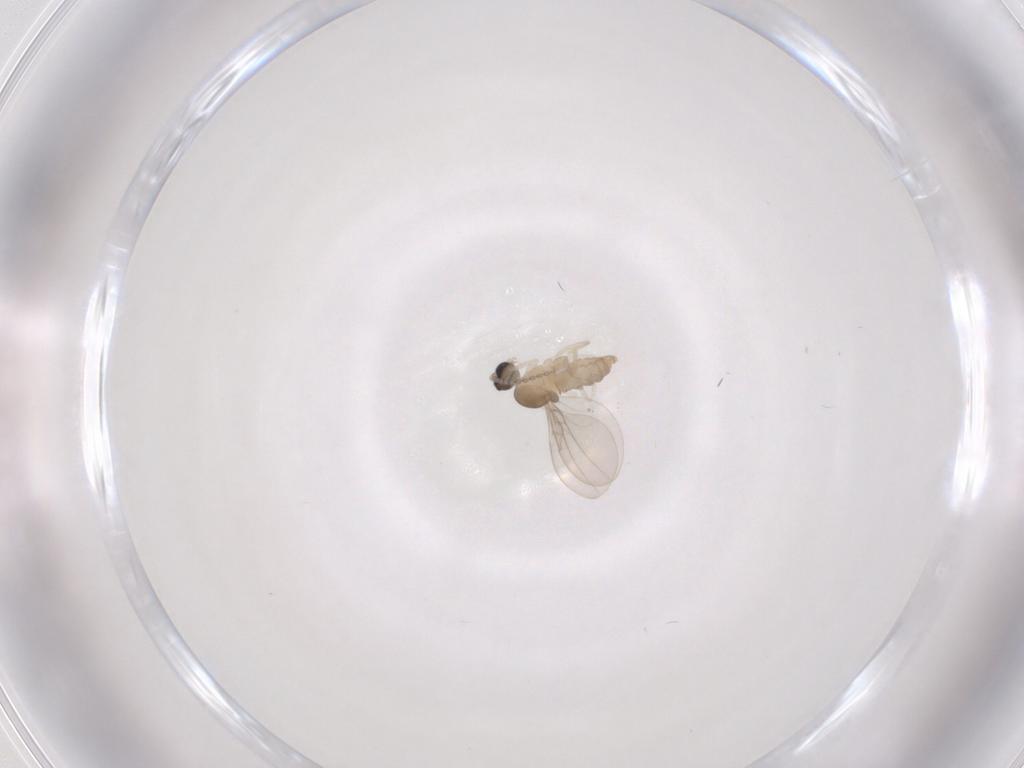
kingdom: Animalia
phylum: Arthropoda
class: Insecta
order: Diptera
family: Cecidomyiidae
